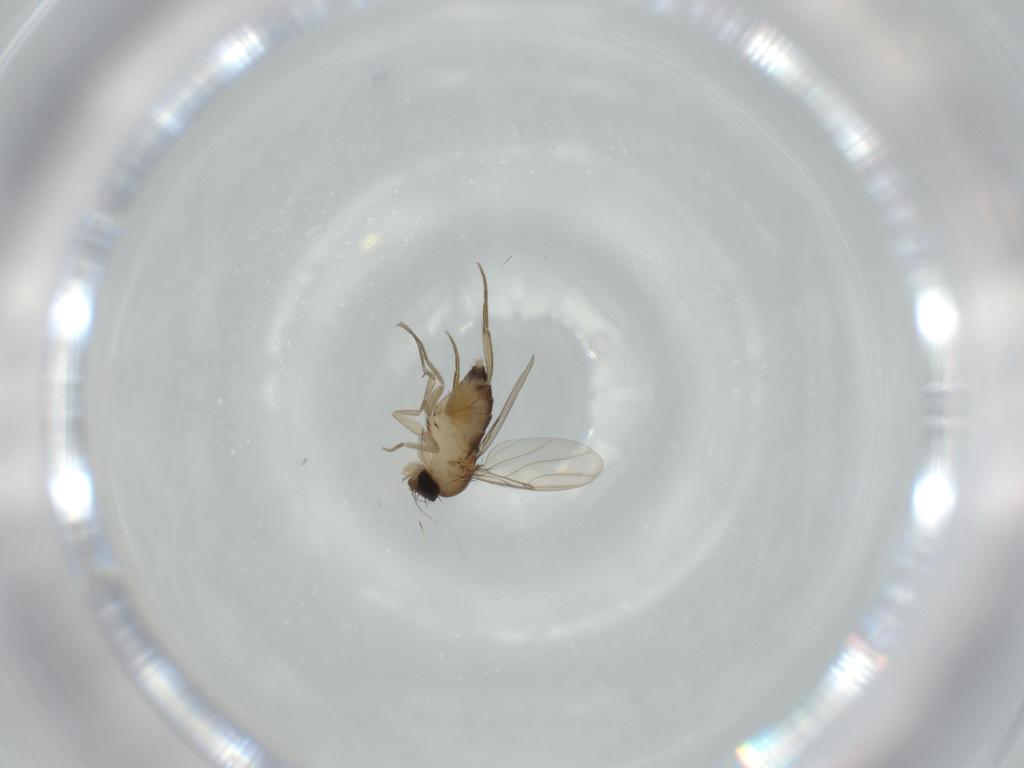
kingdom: Animalia
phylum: Arthropoda
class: Insecta
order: Diptera
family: Phoridae
